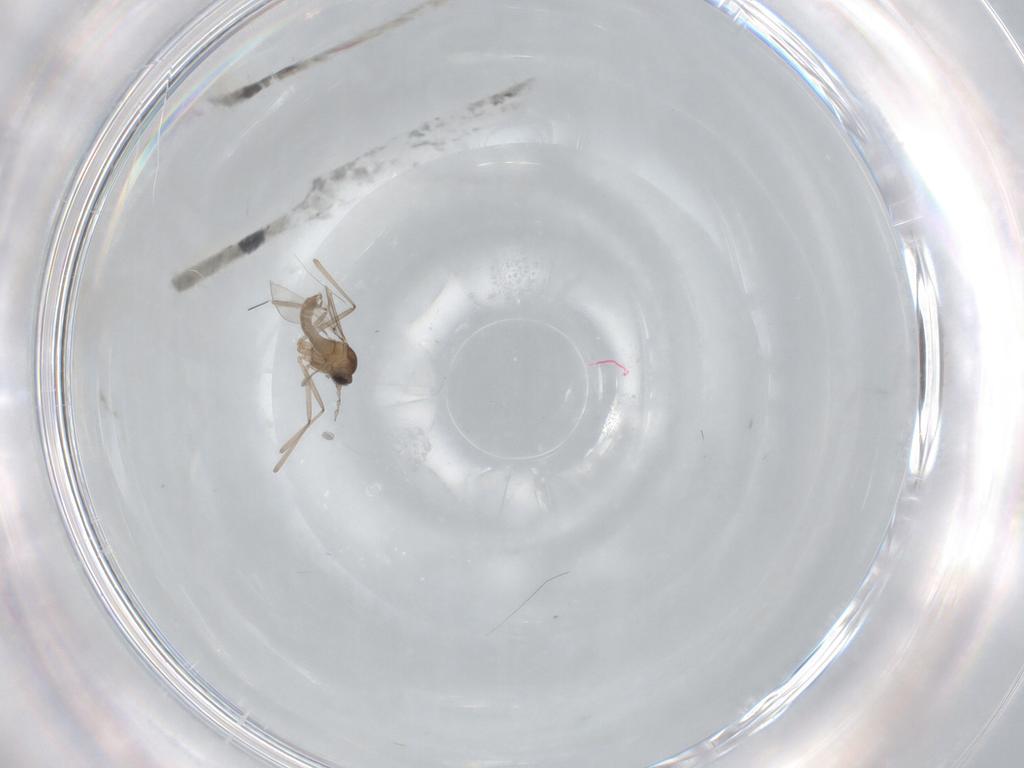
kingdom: Animalia
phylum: Arthropoda
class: Insecta
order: Diptera
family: Cecidomyiidae
